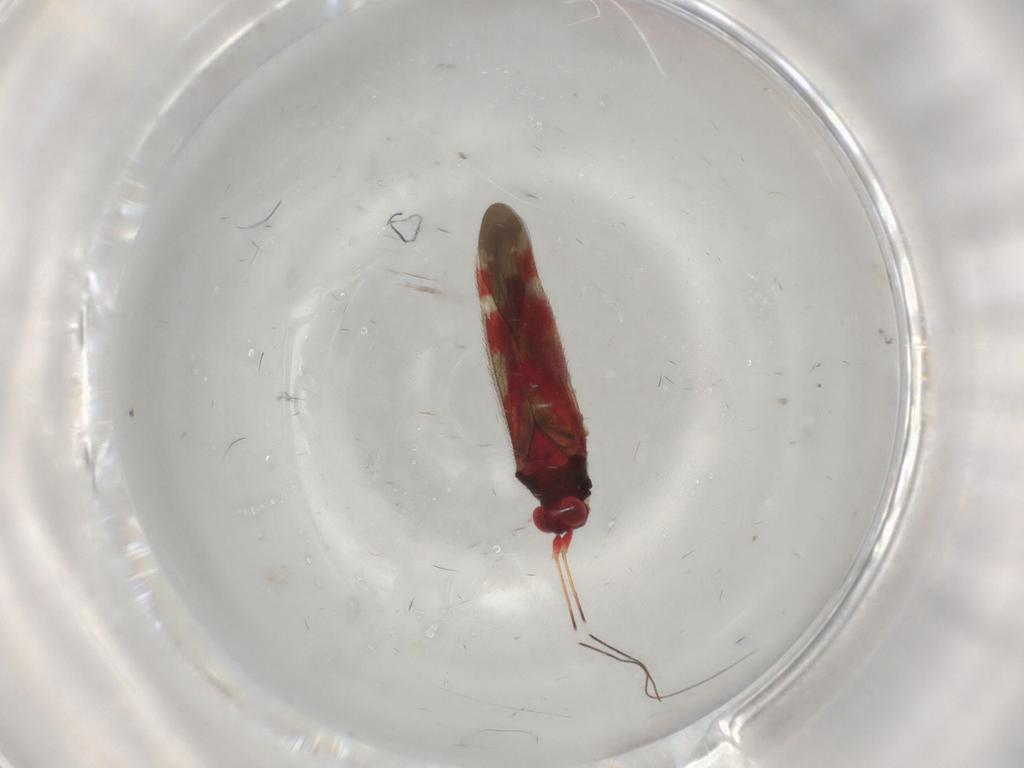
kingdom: Animalia
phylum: Arthropoda
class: Insecta
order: Hemiptera
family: Miridae
